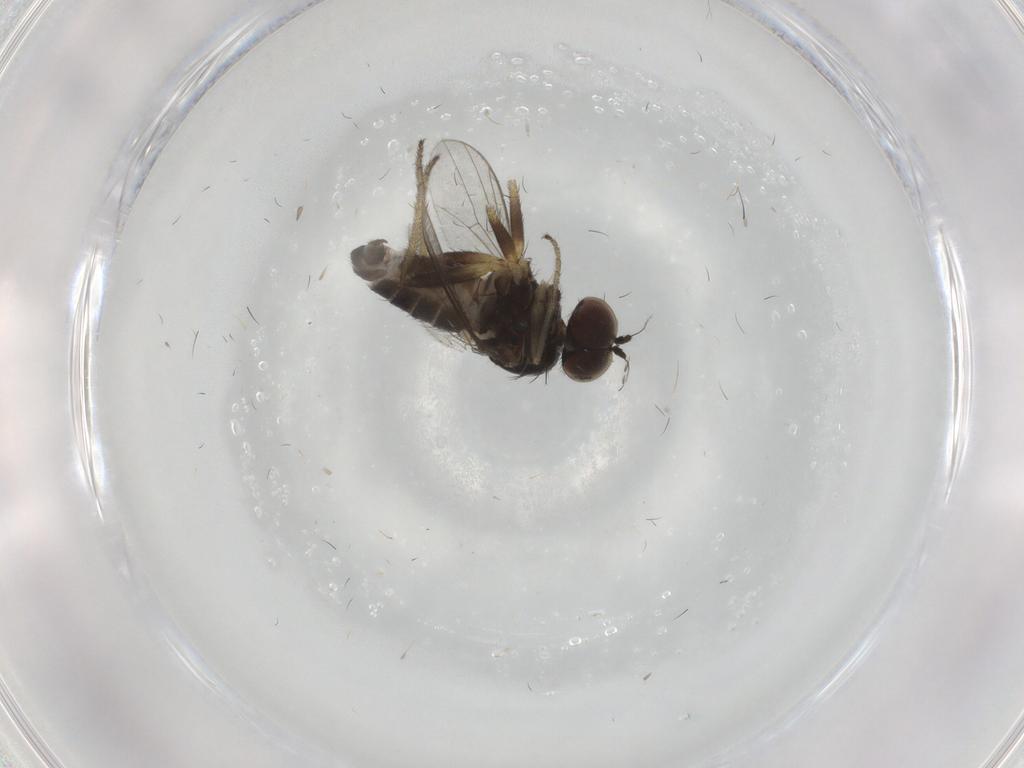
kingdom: Animalia
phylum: Arthropoda
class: Insecta
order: Diptera
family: Dolichopodidae
